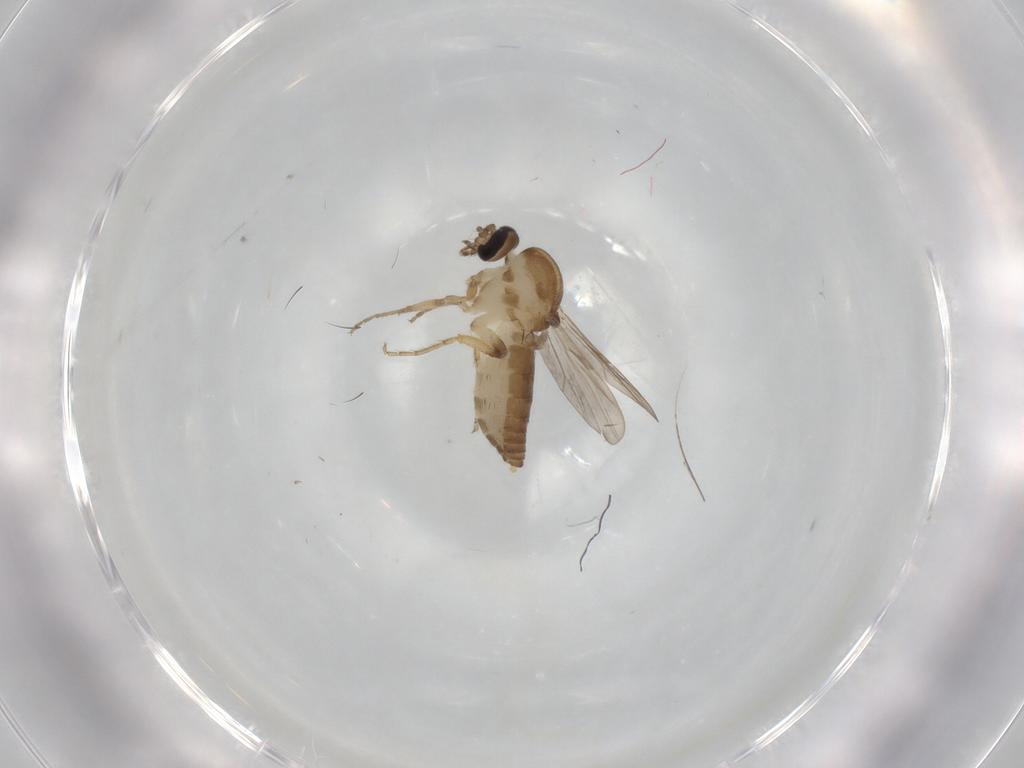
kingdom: Animalia
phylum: Arthropoda
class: Insecta
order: Diptera
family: Ceratopogonidae
